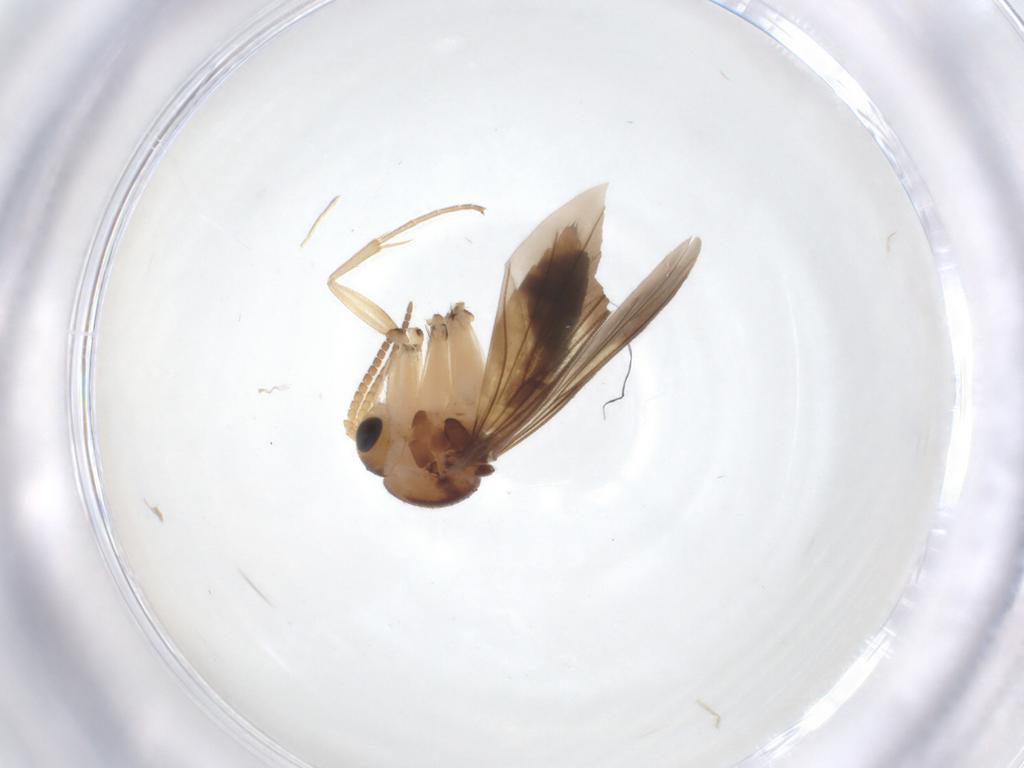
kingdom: Animalia
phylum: Arthropoda
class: Insecta
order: Diptera
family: Mycetophilidae
